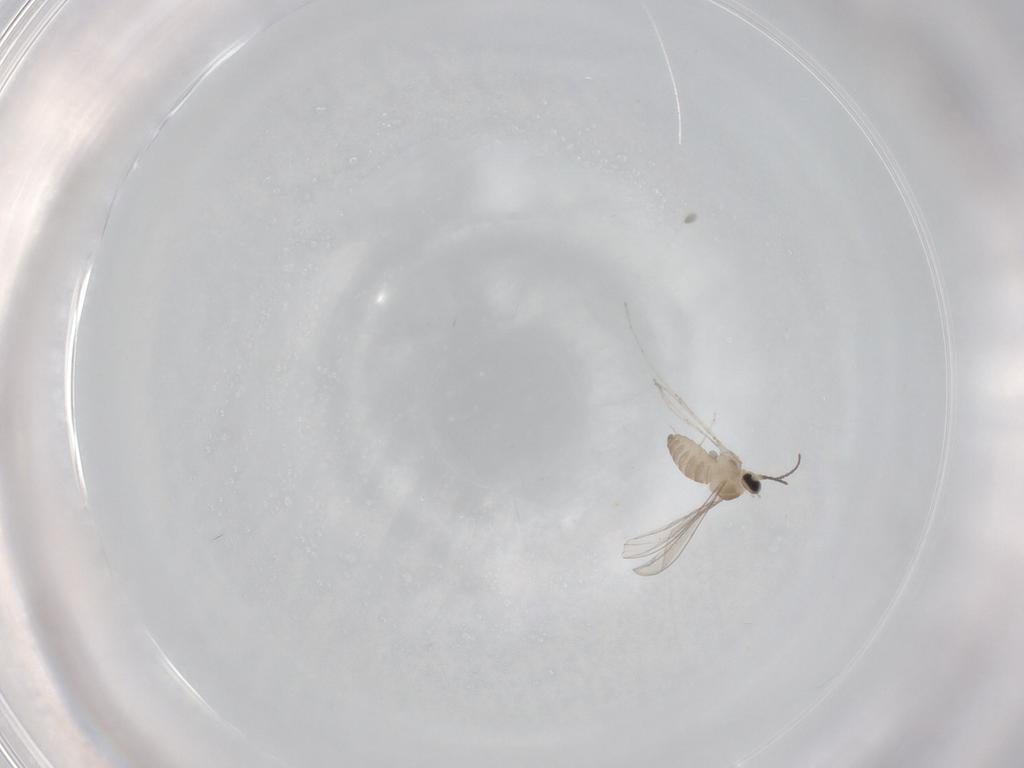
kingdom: Animalia
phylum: Arthropoda
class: Insecta
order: Diptera
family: Cecidomyiidae
